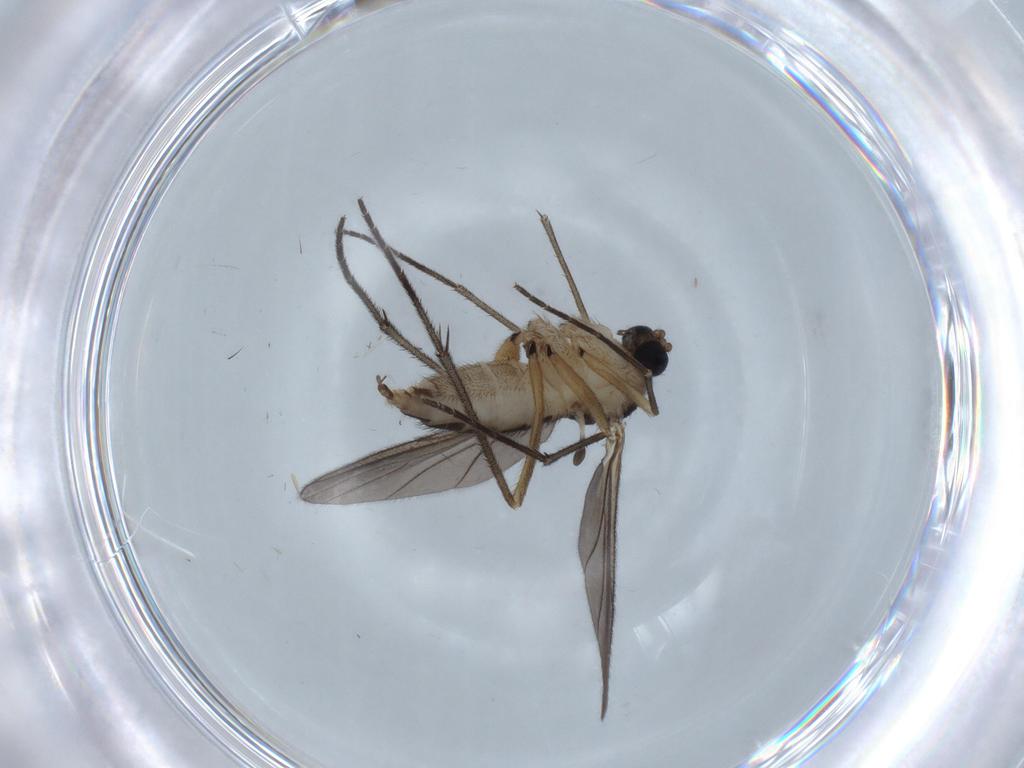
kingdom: Animalia
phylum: Arthropoda
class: Insecta
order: Diptera
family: Sciaridae
